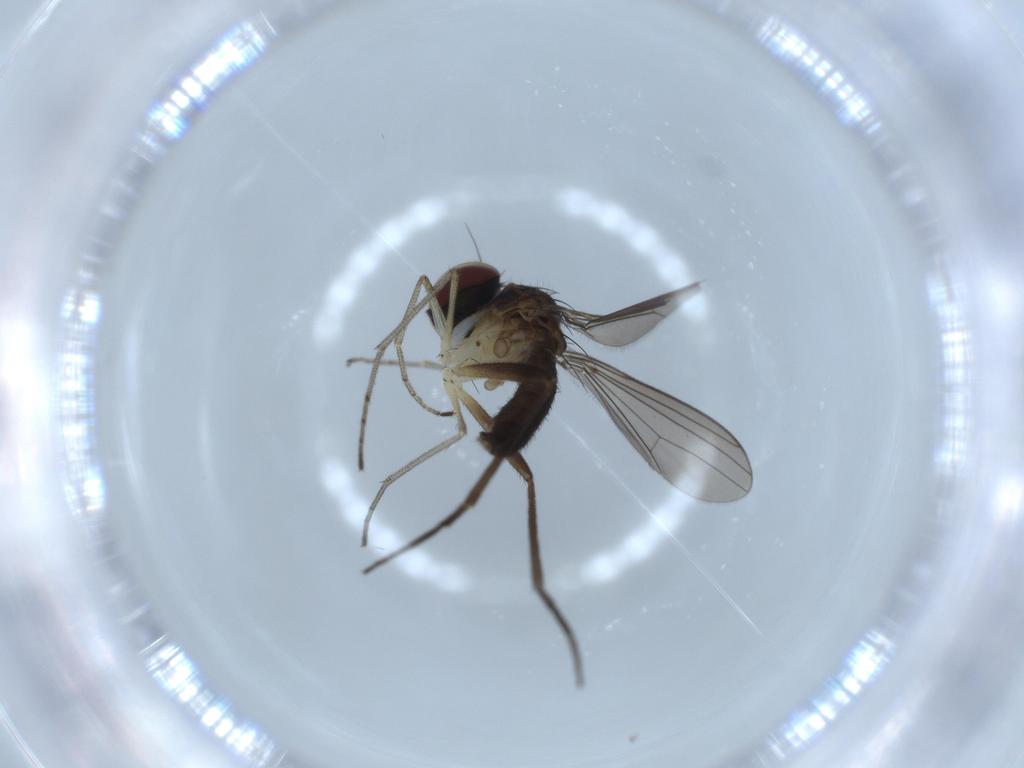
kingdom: Animalia
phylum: Arthropoda
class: Insecta
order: Diptera
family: Dolichopodidae
